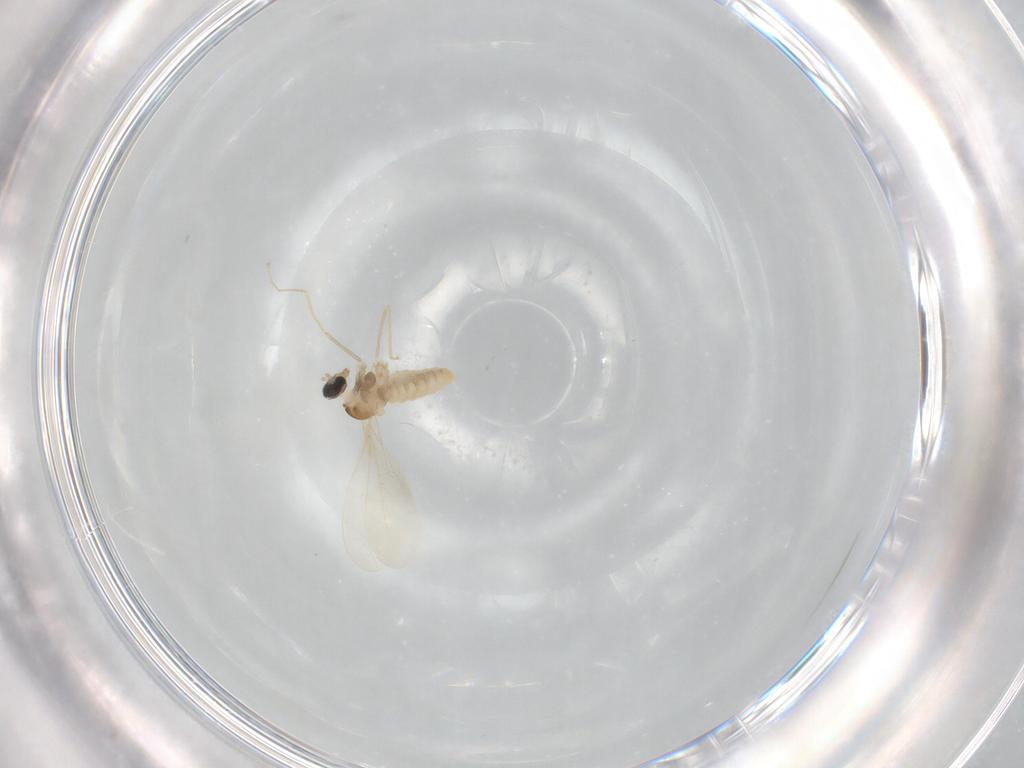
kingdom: Animalia
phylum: Arthropoda
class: Insecta
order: Diptera
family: Cecidomyiidae
